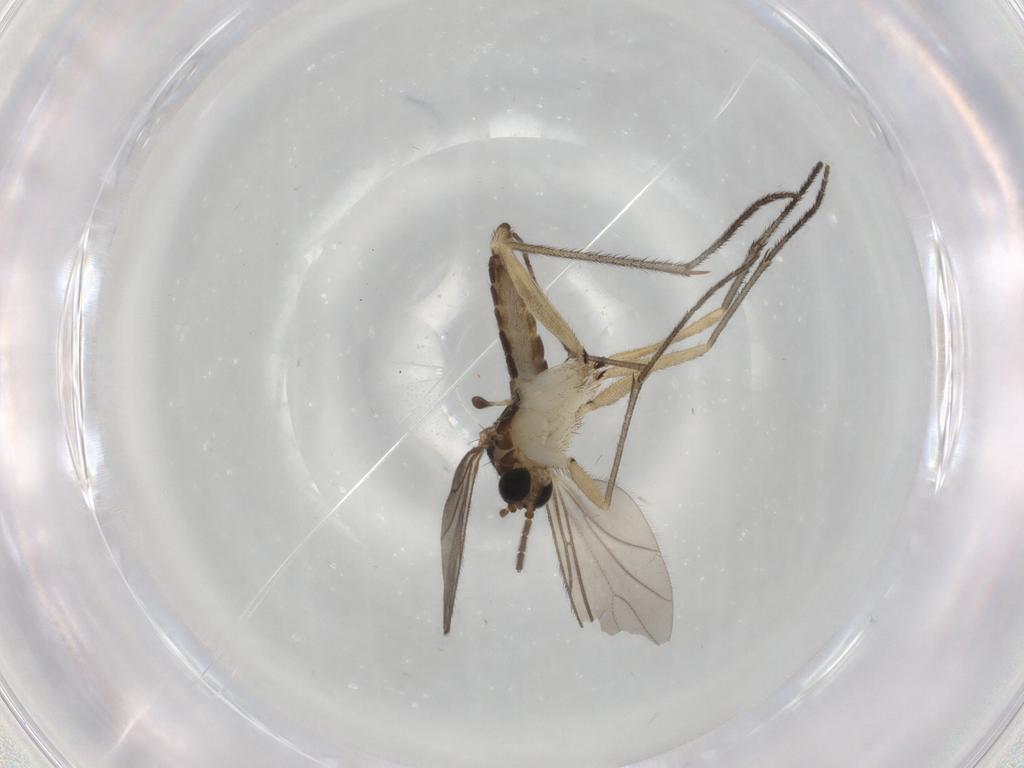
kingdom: Animalia
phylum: Arthropoda
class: Insecta
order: Diptera
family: Sciaridae
